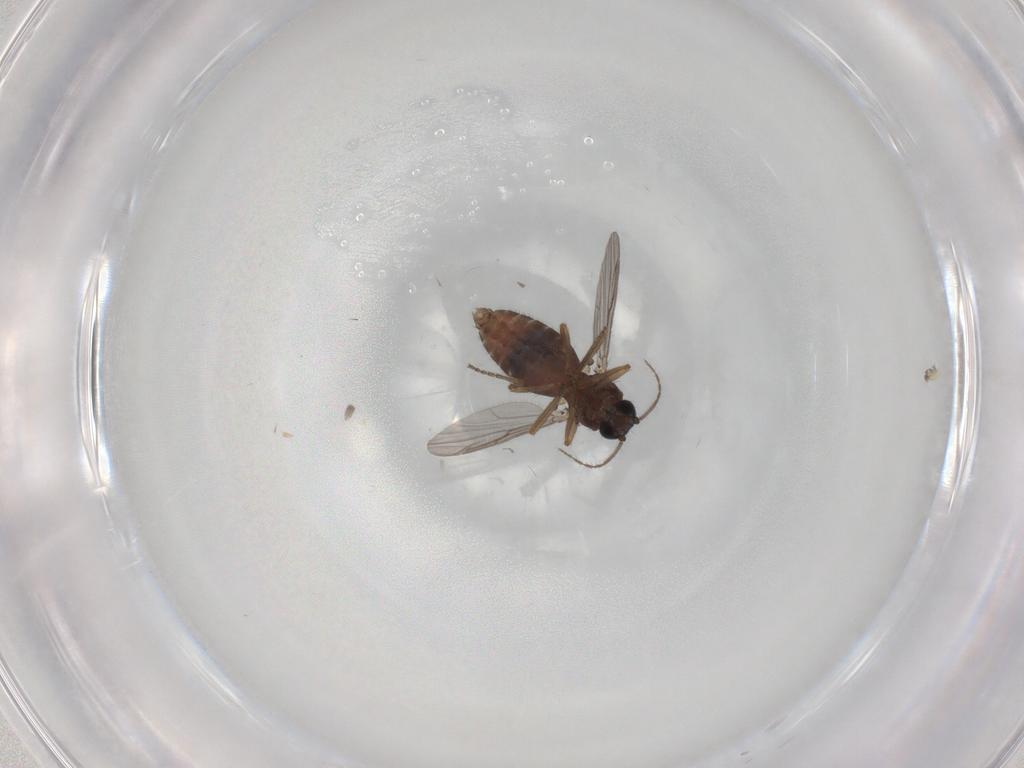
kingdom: Animalia
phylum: Arthropoda
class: Insecta
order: Diptera
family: Ceratopogonidae
